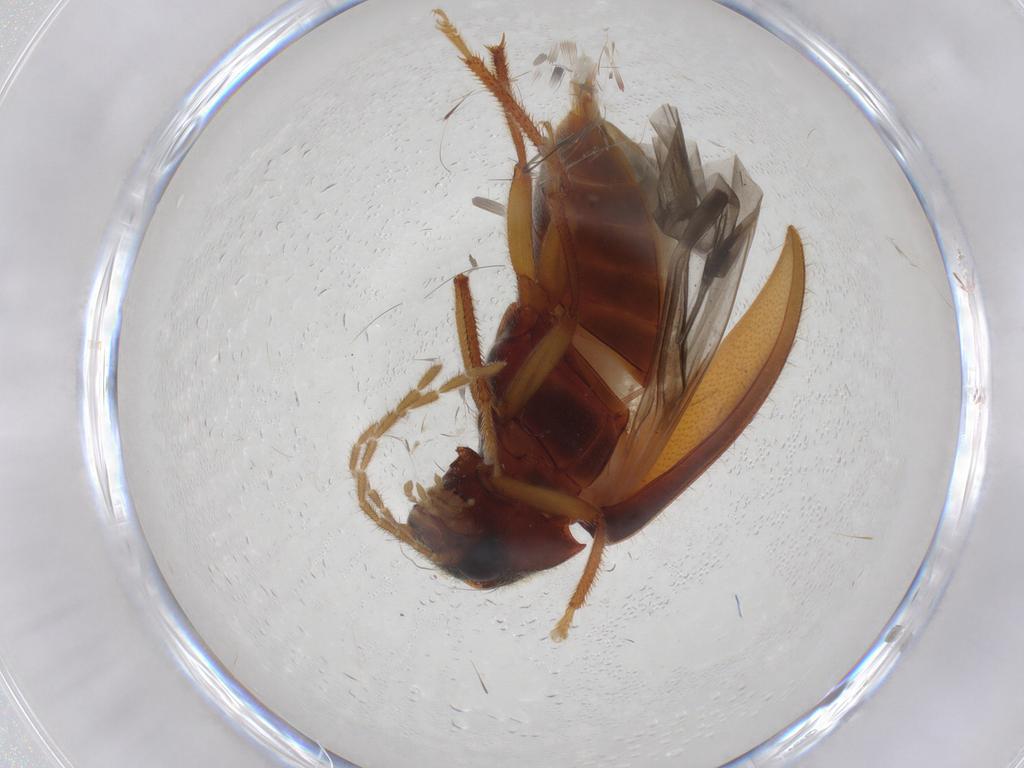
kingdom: Animalia
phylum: Arthropoda
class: Insecta
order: Coleoptera
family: Ptilodactylidae
